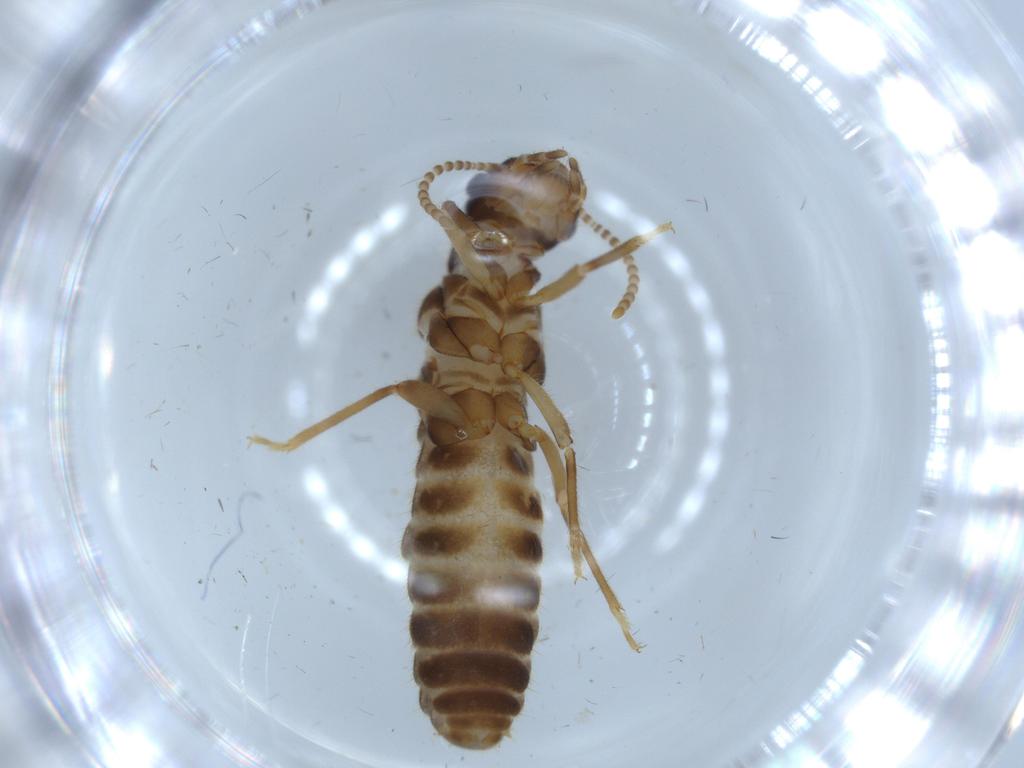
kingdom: Animalia
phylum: Arthropoda
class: Insecta
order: Blattodea
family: Termitidae
